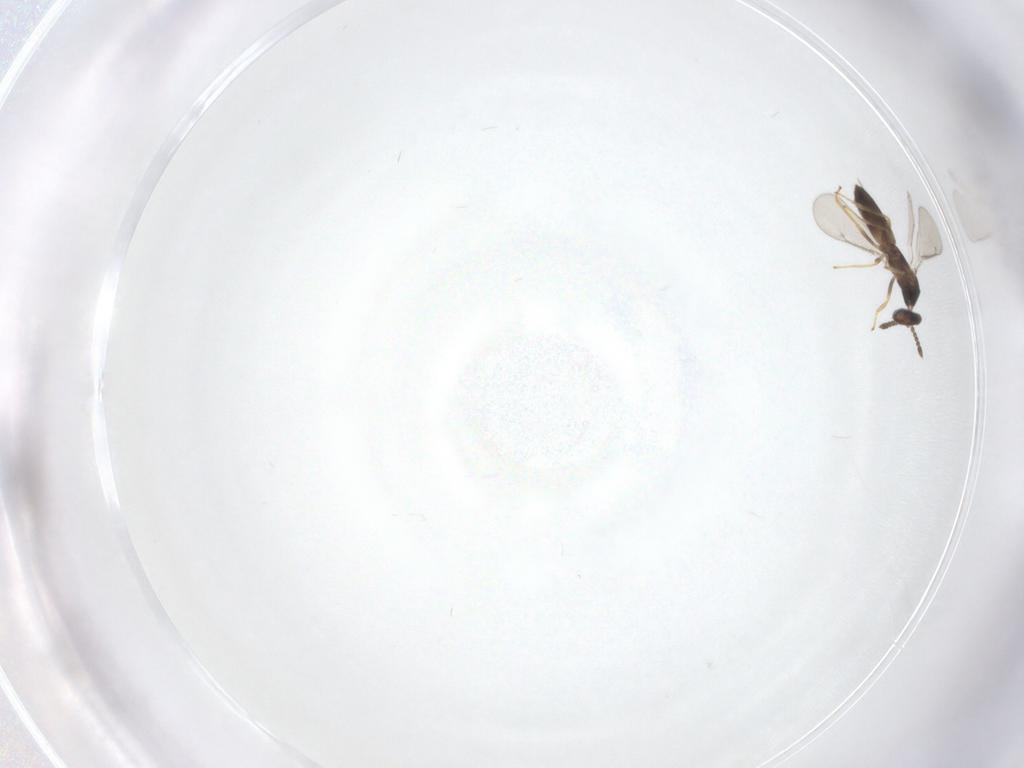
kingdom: Animalia
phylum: Arthropoda
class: Insecta
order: Hymenoptera
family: Eulophidae
